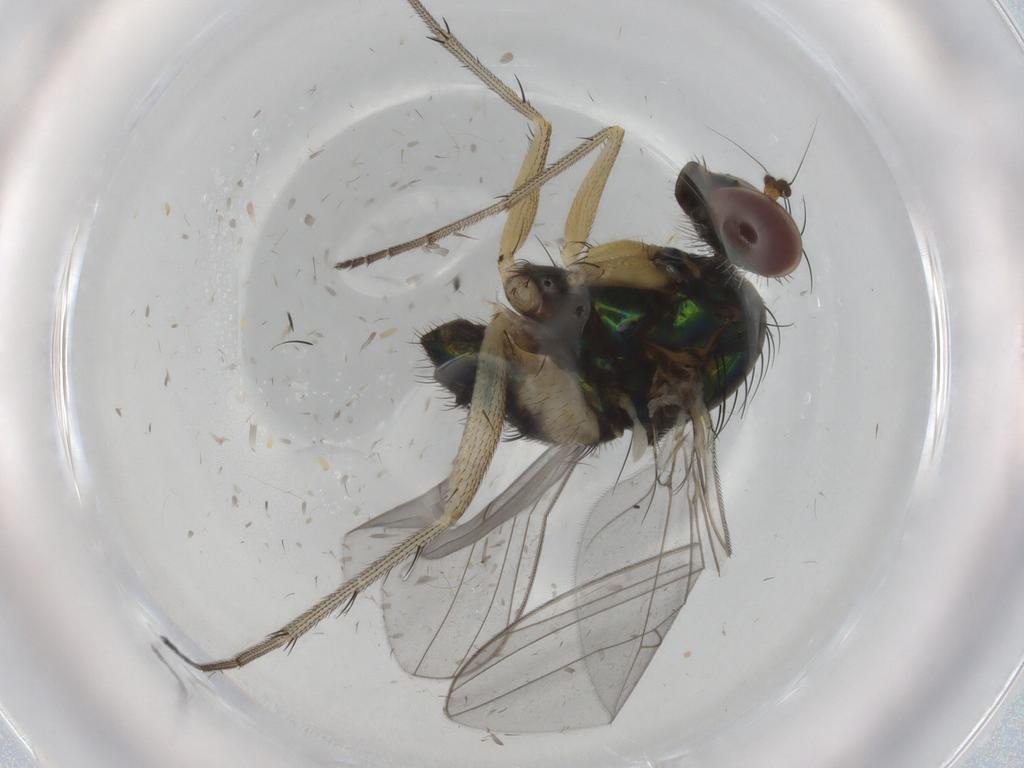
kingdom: Animalia
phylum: Arthropoda
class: Insecta
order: Diptera
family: Dolichopodidae
